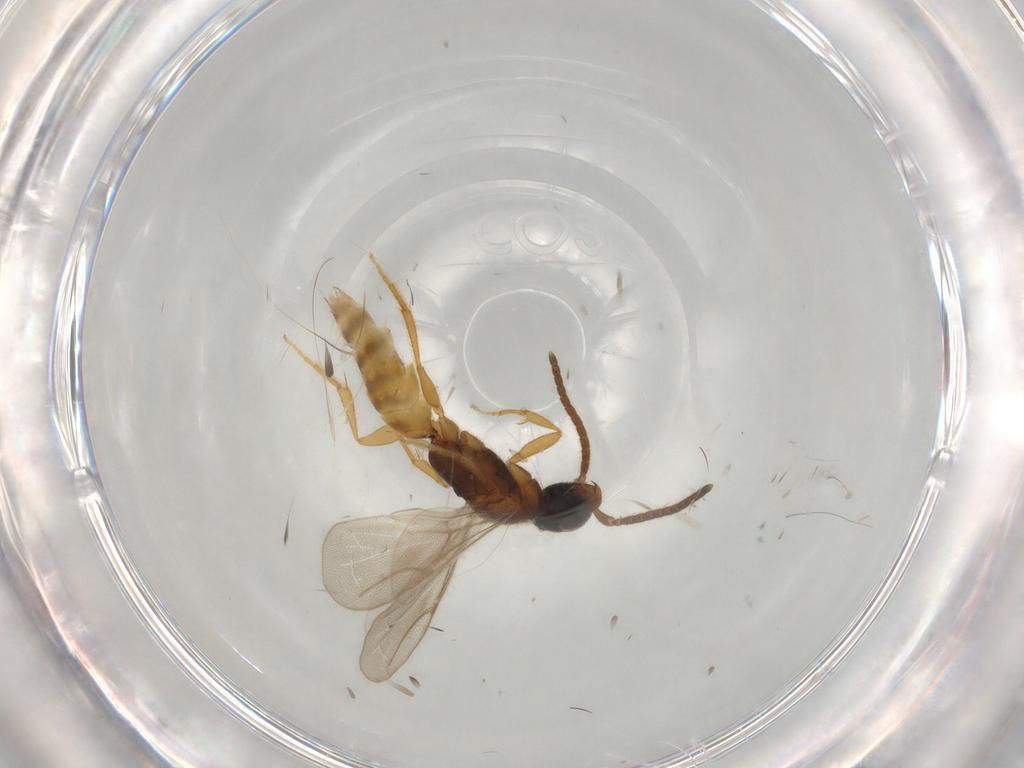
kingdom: Animalia
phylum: Arthropoda
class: Insecta
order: Hymenoptera
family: Bethylidae
